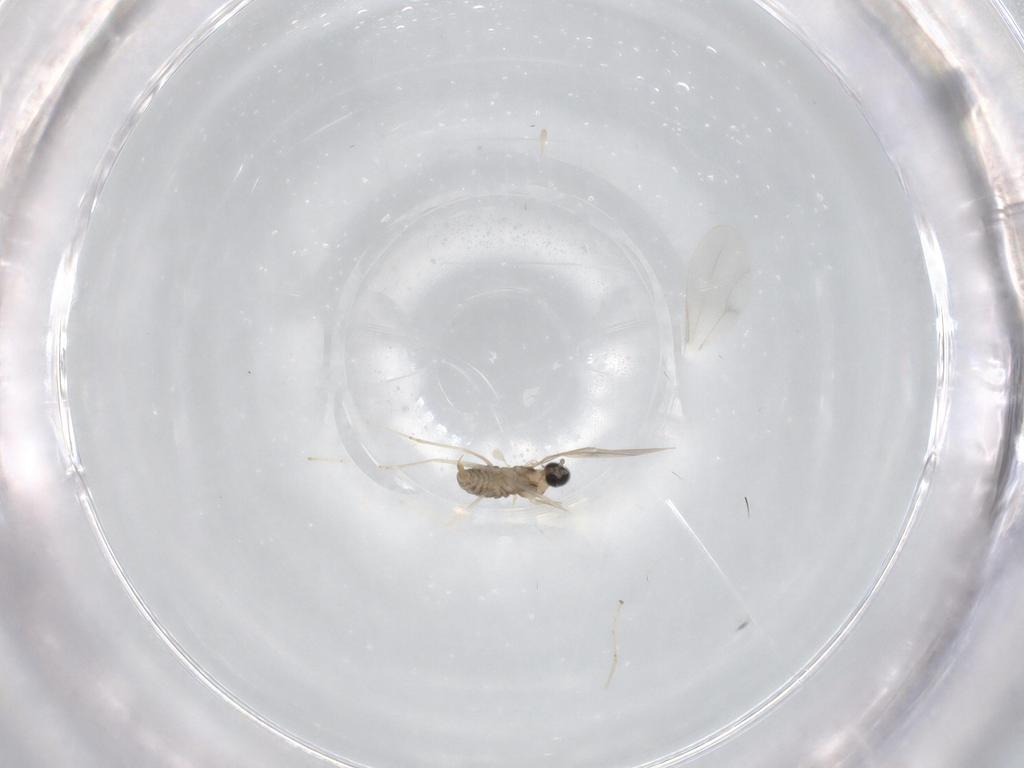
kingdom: Animalia
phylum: Arthropoda
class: Insecta
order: Diptera
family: Cecidomyiidae
